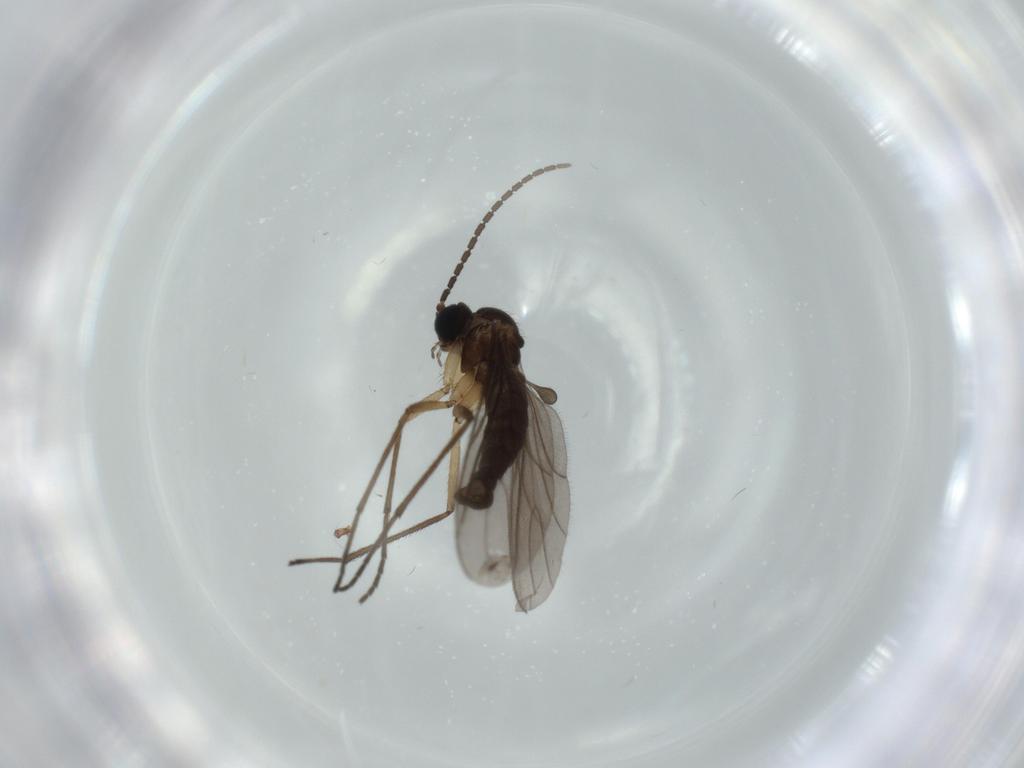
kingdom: Animalia
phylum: Arthropoda
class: Insecta
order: Diptera
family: Sciaridae
